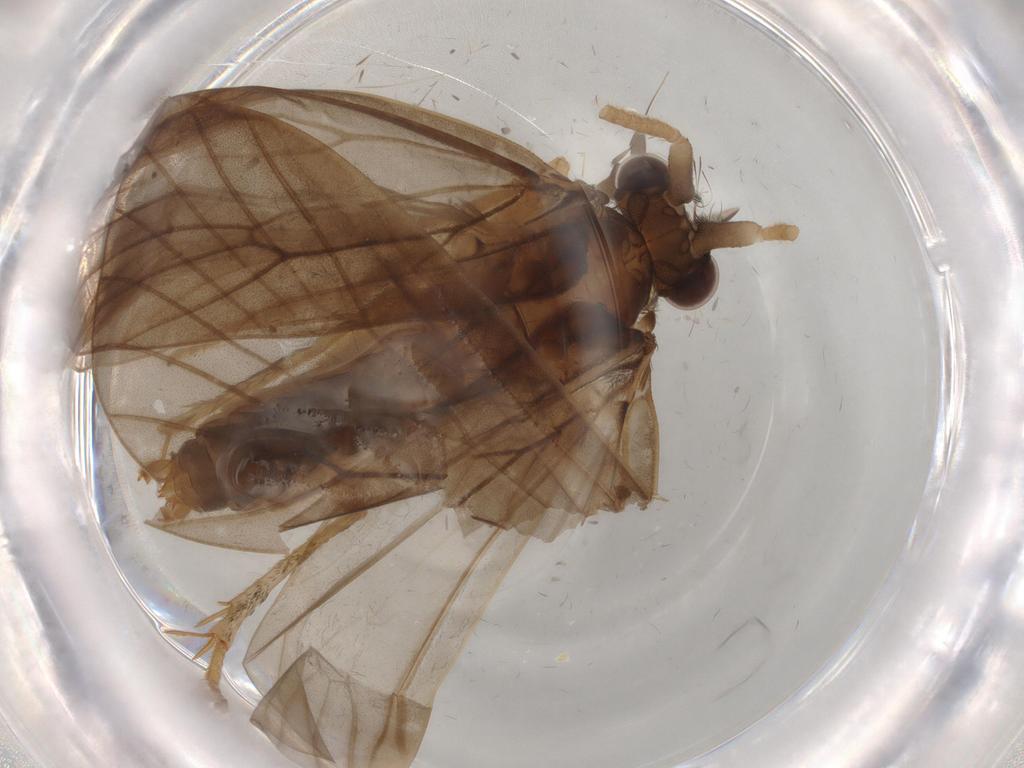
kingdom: Animalia
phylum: Arthropoda
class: Insecta
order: Trichoptera
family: Lepidostomatidae
